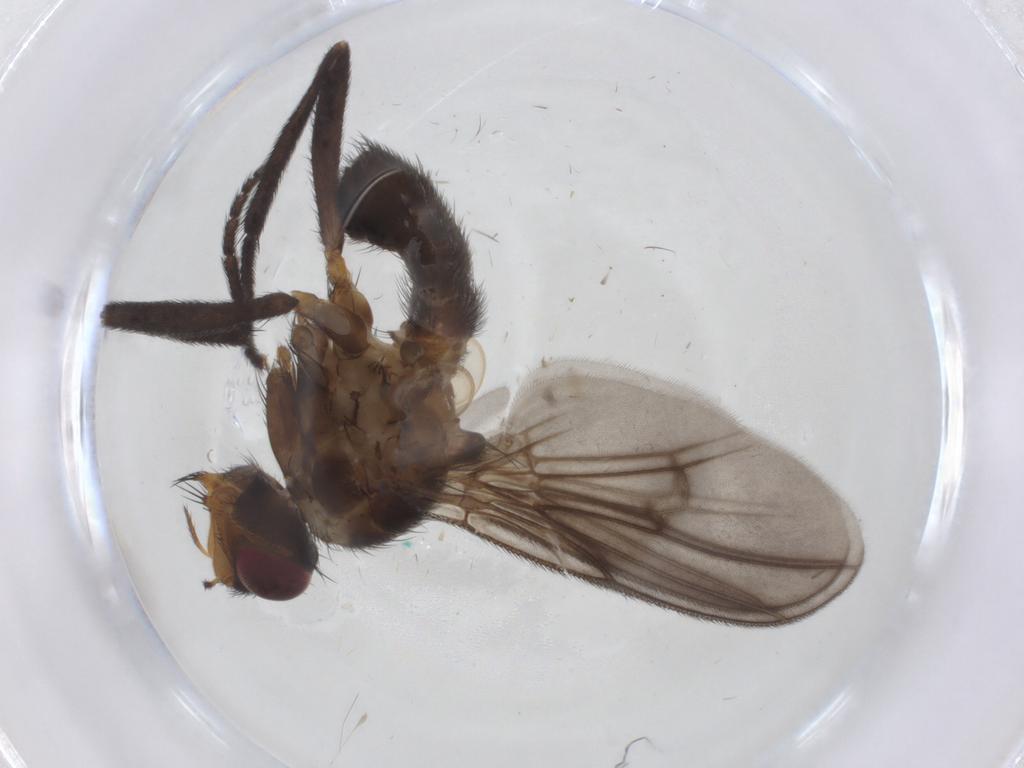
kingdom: Animalia
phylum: Arthropoda
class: Insecta
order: Diptera
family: Calliphoridae
